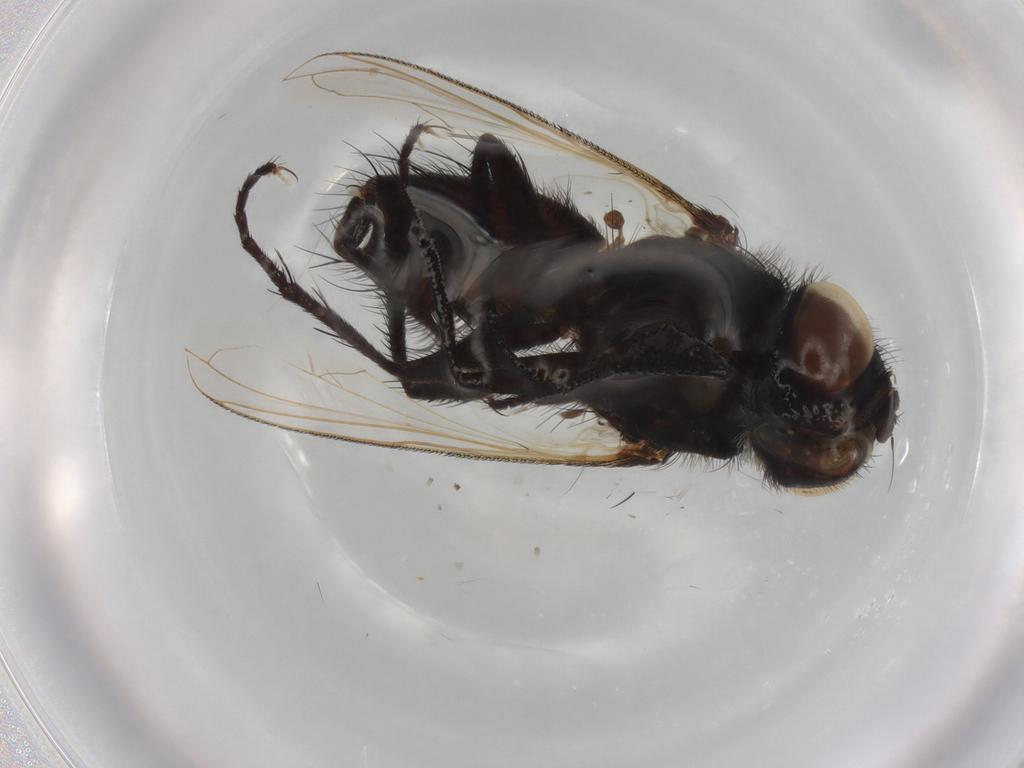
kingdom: Animalia
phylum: Arthropoda
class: Insecta
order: Diptera
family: Tachinidae
